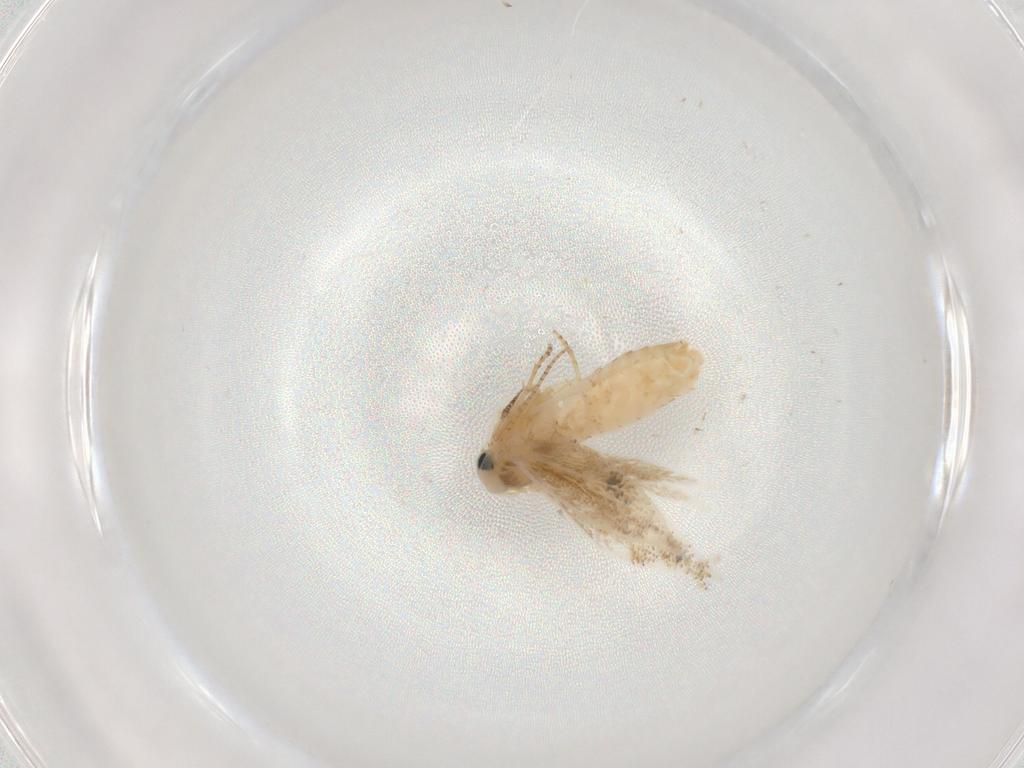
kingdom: Animalia
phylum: Arthropoda
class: Insecta
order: Lepidoptera
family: Bucculatricidae
